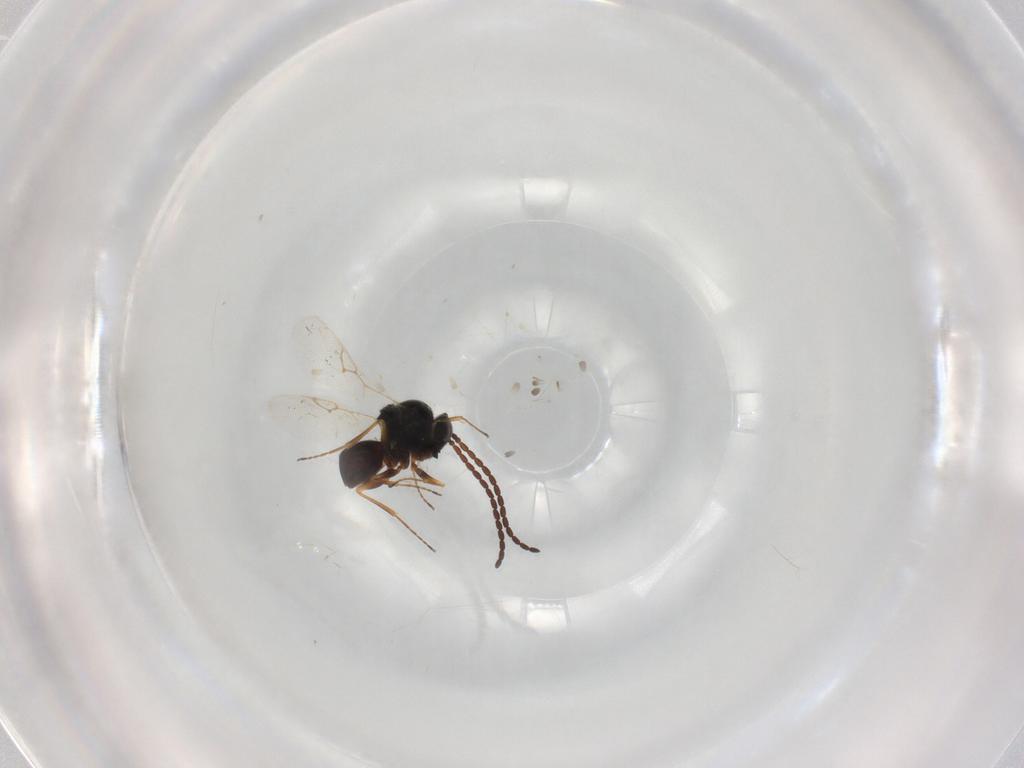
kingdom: Animalia
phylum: Arthropoda
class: Insecta
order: Hymenoptera
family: Figitidae
